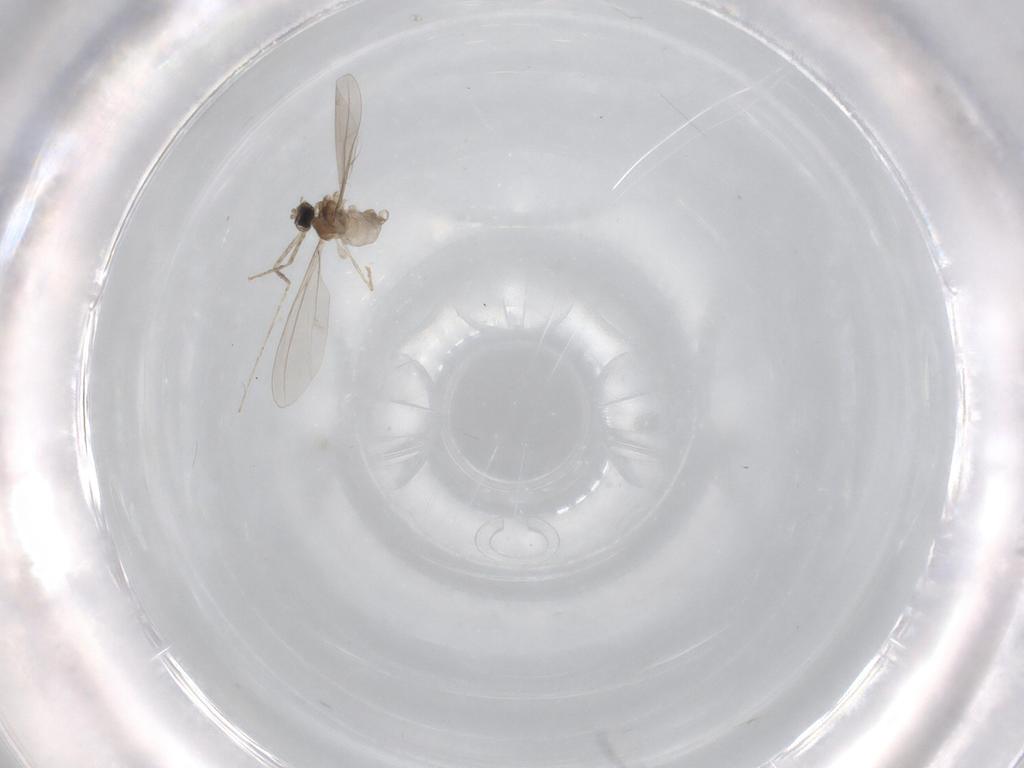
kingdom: Animalia
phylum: Arthropoda
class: Insecta
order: Diptera
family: Cecidomyiidae
